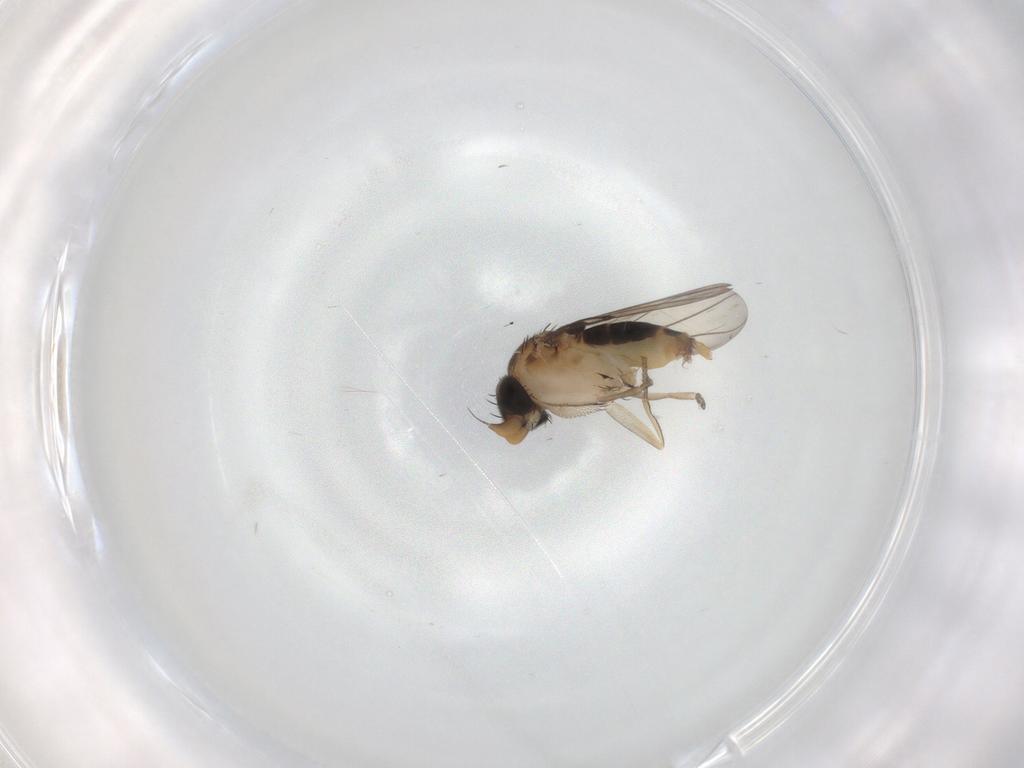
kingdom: Animalia
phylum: Arthropoda
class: Insecta
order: Diptera
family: Phoridae
